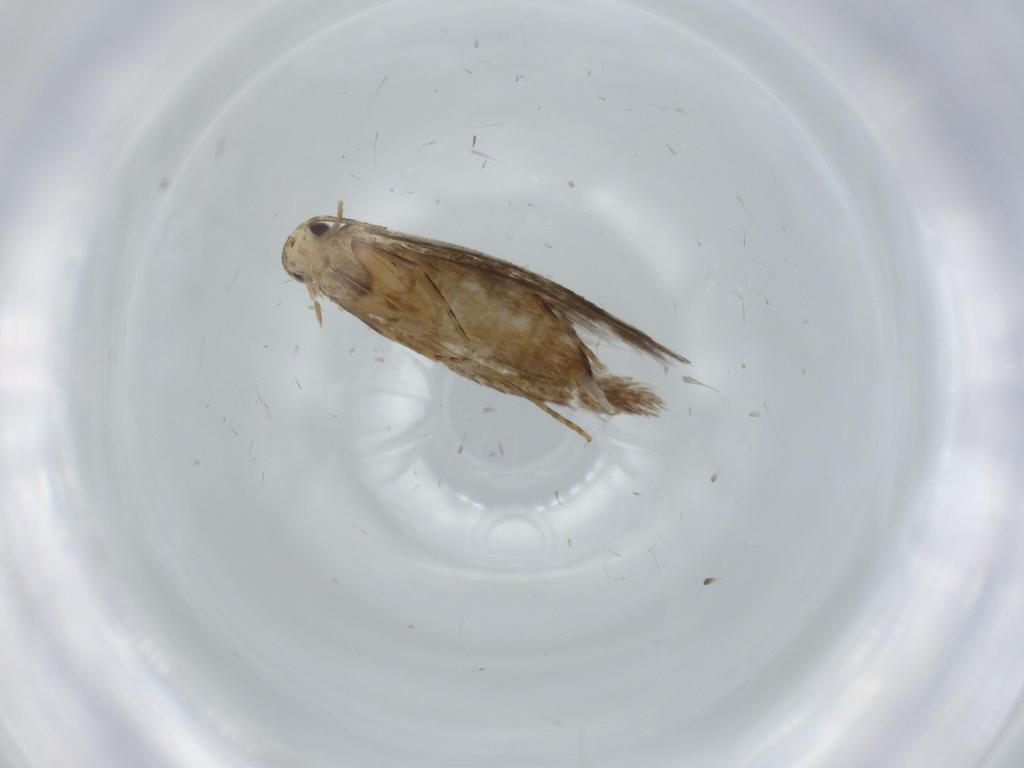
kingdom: Animalia
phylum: Arthropoda
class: Insecta
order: Lepidoptera
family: Tineidae
